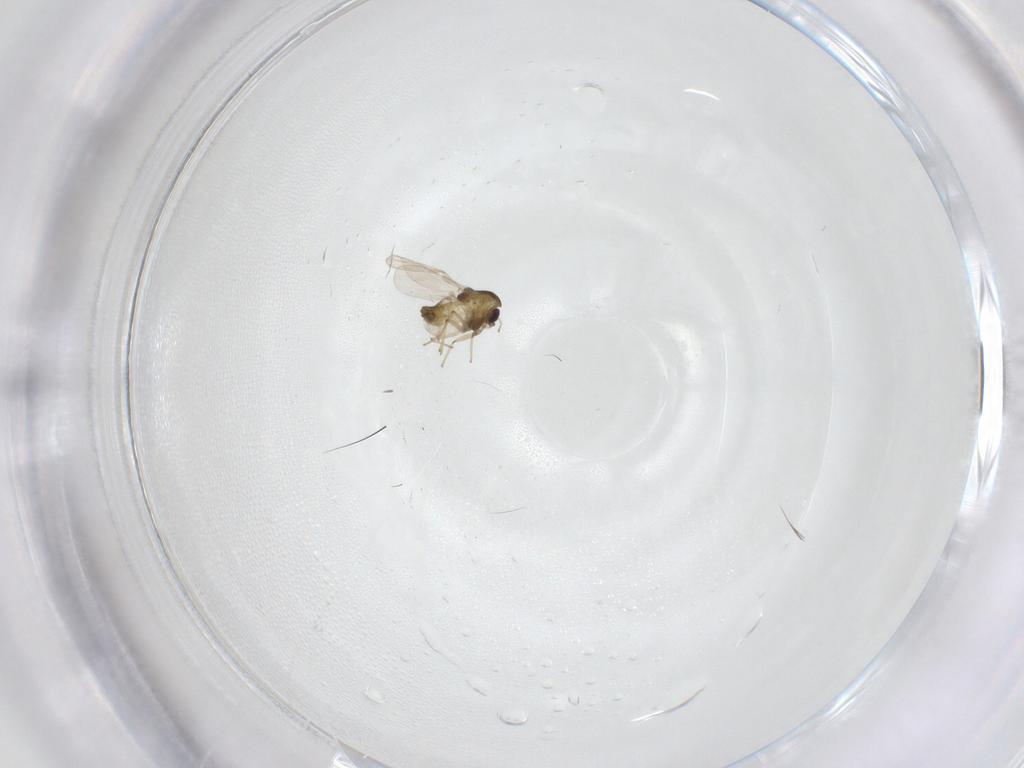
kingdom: Animalia
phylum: Arthropoda
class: Insecta
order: Diptera
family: Chironomidae
